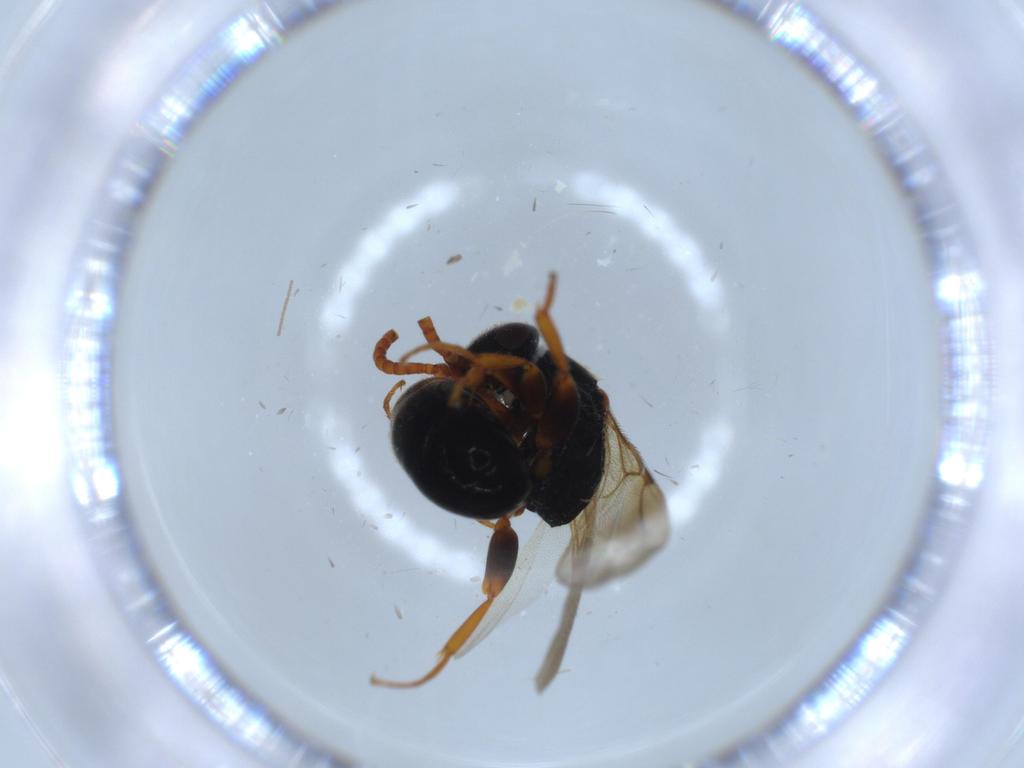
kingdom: Animalia
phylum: Arthropoda
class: Insecta
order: Hymenoptera
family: Bethylidae
